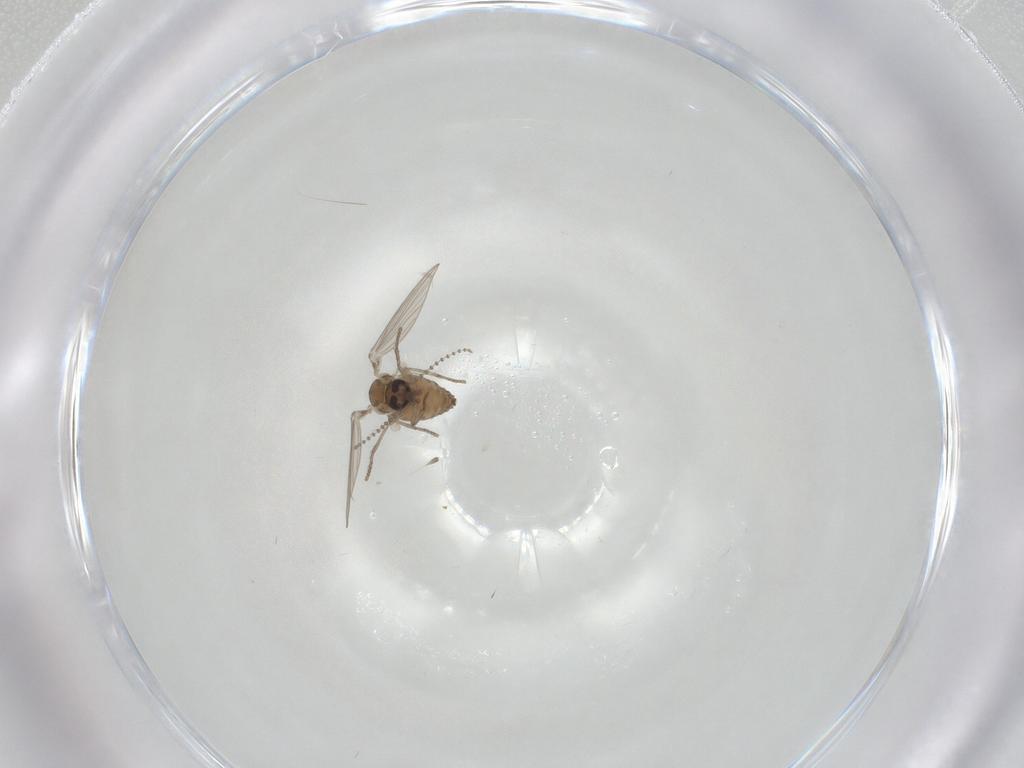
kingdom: Animalia
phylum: Arthropoda
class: Insecta
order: Diptera
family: Psychodidae
